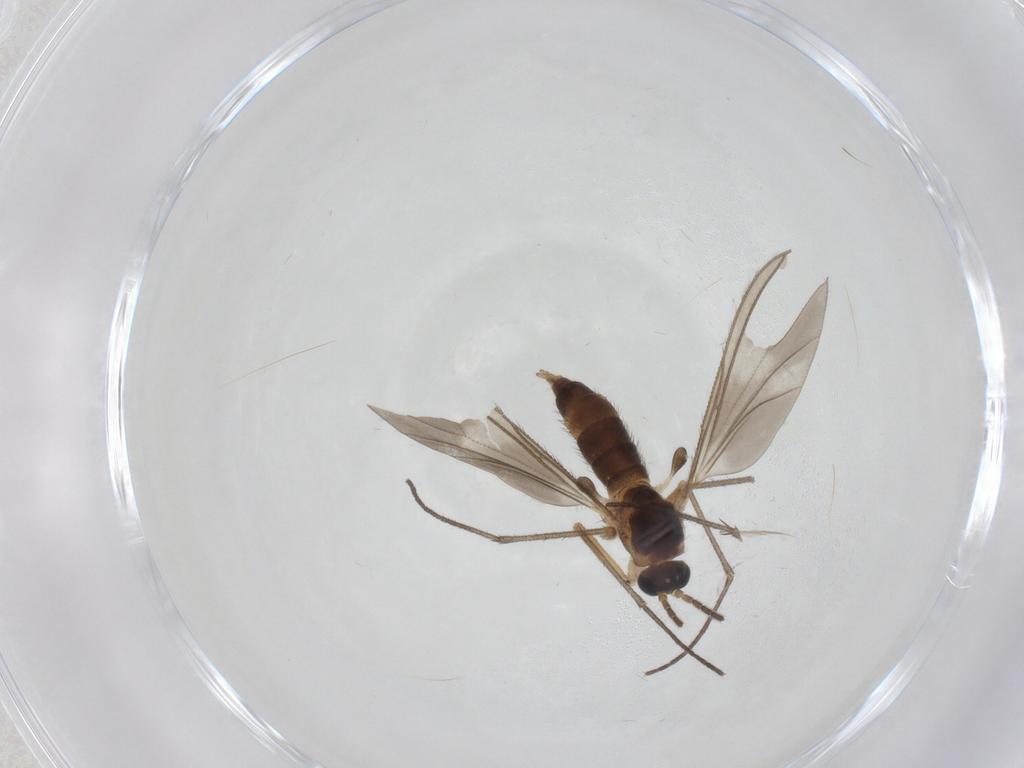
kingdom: Animalia
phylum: Arthropoda
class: Insecta
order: Diptera
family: Sciaridae
